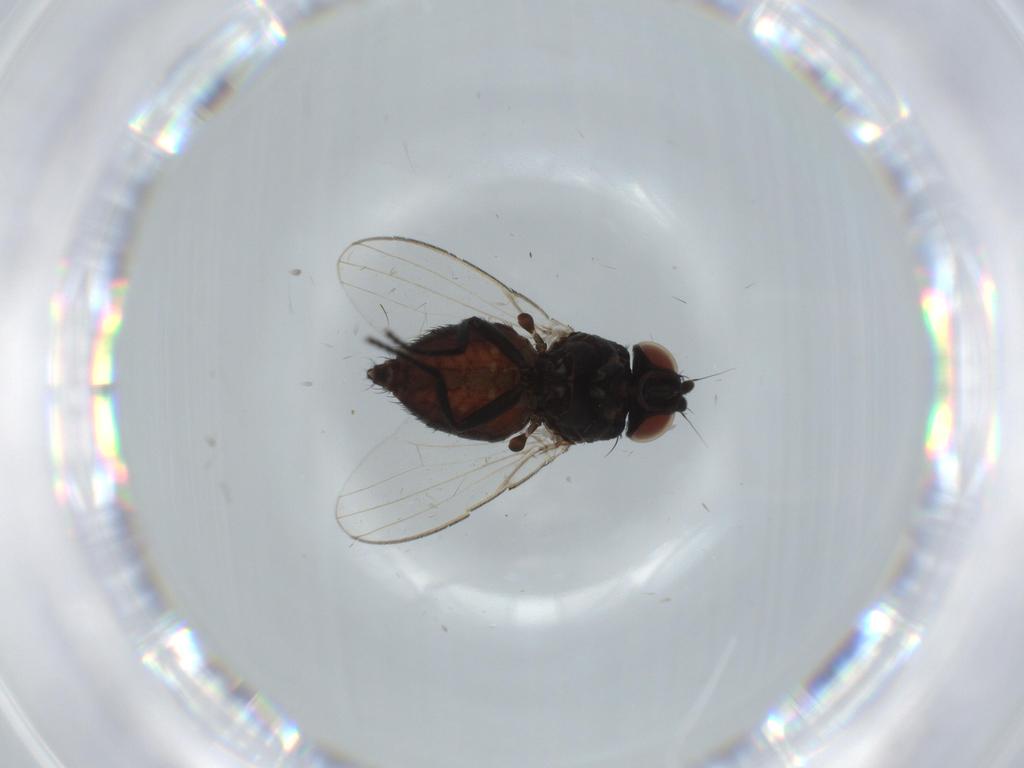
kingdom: Animalia
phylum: Arthropoda
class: Insecta
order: Diptera
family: Milichiidae
